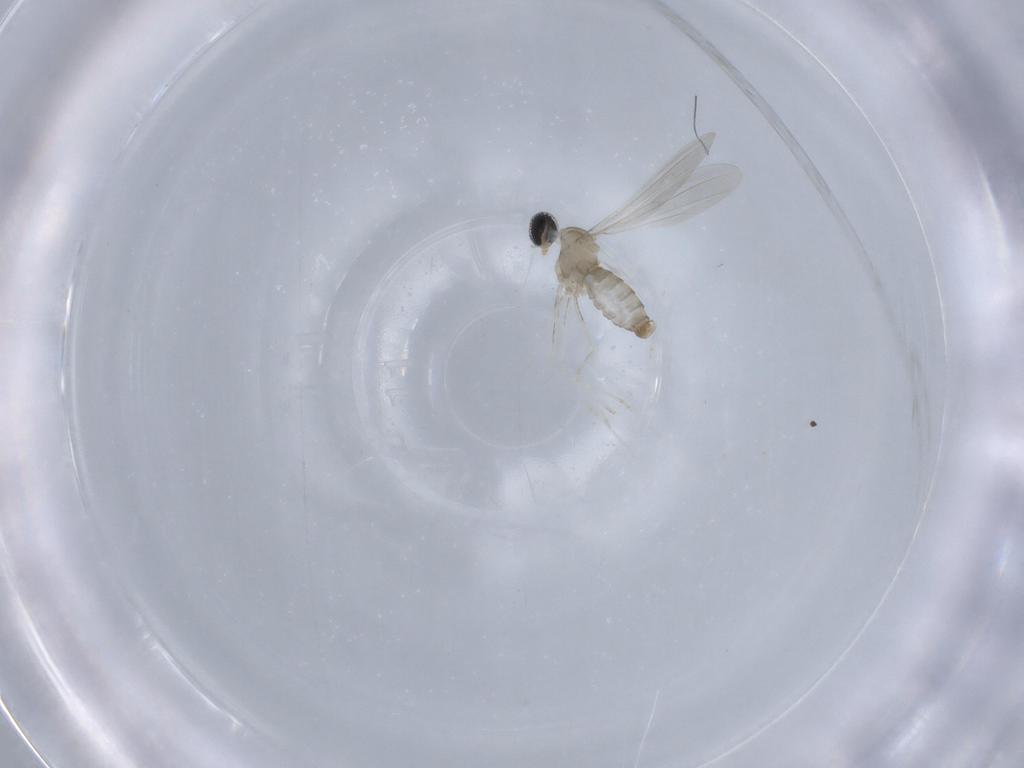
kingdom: Animalia
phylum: Arthropoda
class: Insecta
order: Diptera
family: Cecidomyiidae
